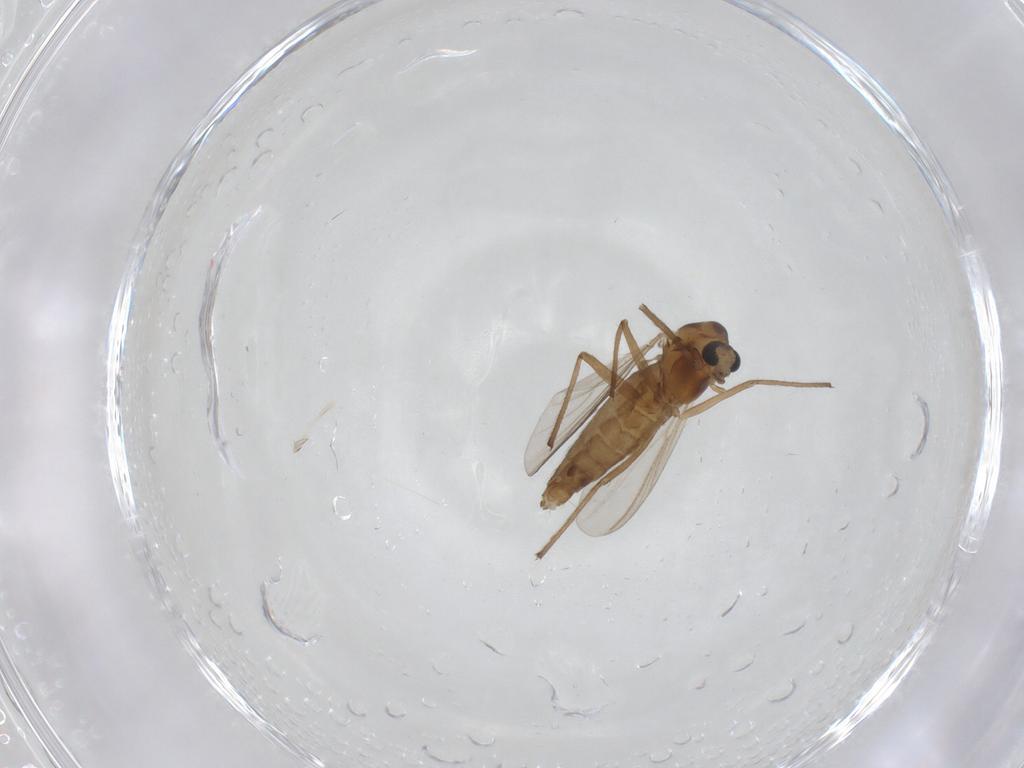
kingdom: Animalia
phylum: Arthropoda
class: Insecta
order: Diptera
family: Chironomidae
